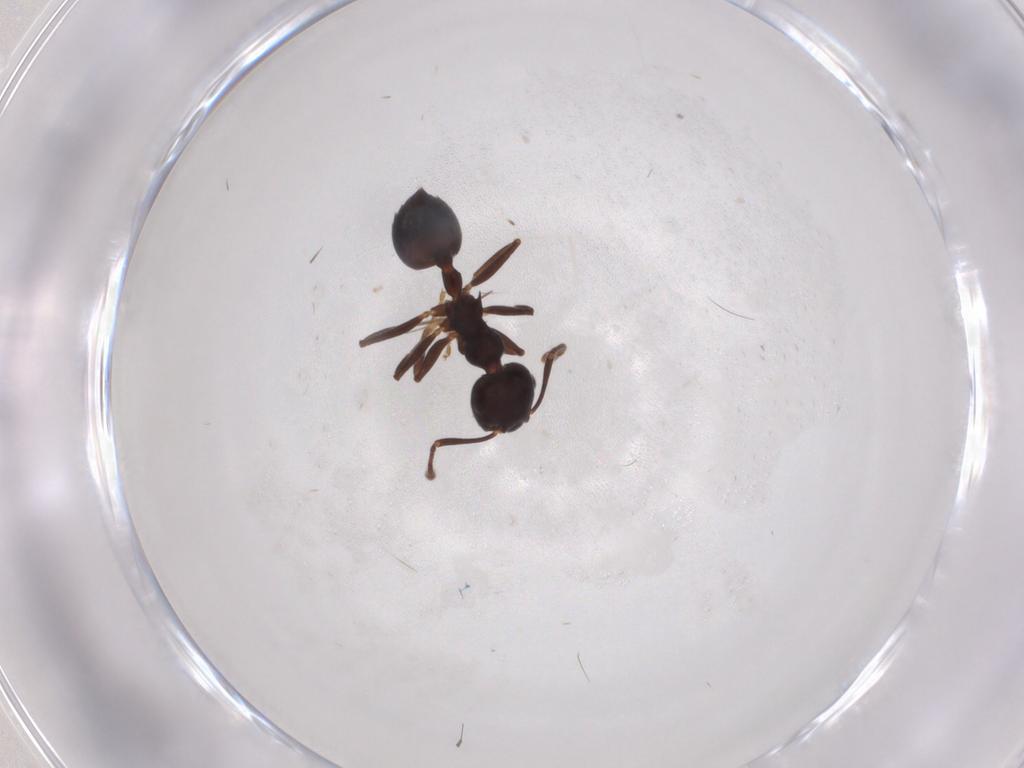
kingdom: Animalia
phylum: Arthropoda
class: Insecta
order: Hymenoptera
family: Formicidae
